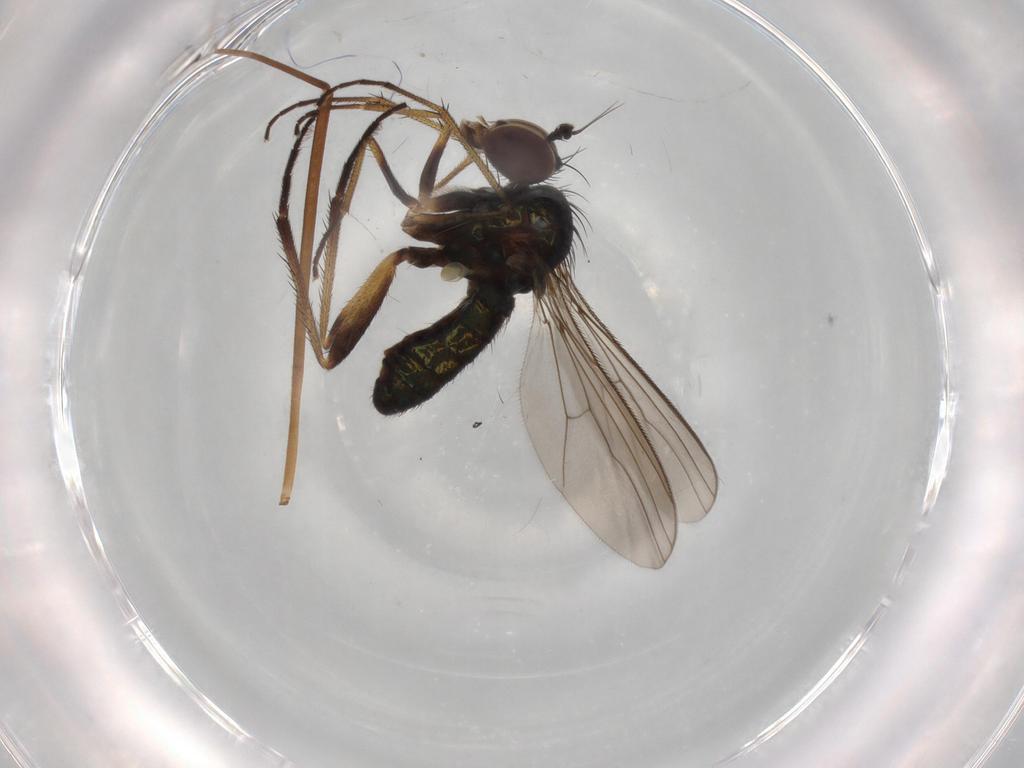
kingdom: Animalia
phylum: Arthropoda
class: Insecta
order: Diptera
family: Dolichopodidae
